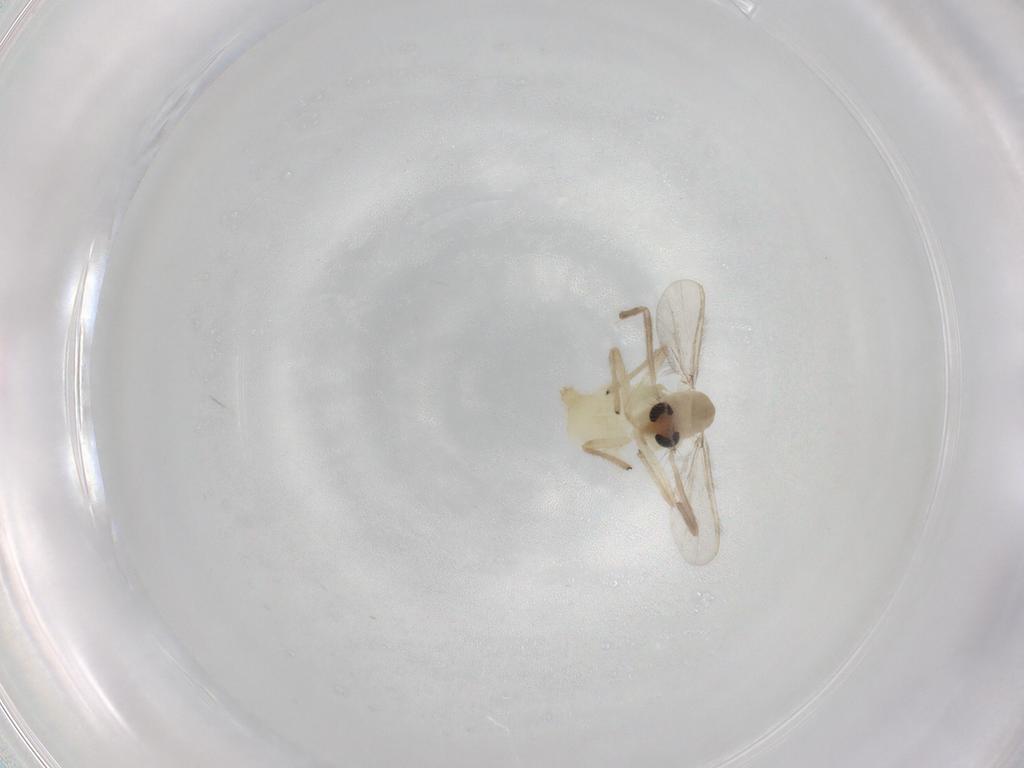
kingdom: Animalia
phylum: Arthropoda
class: Insecta
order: Diptera
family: Chironomidae
